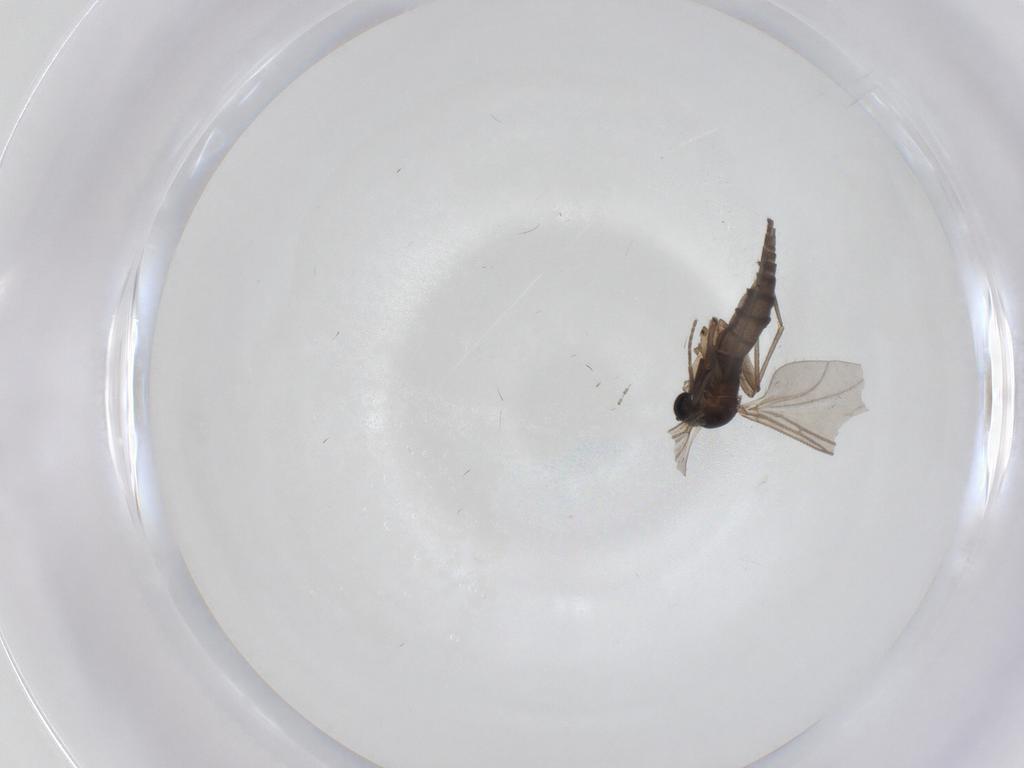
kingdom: Animalia
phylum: Arthropoda
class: Insecta
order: Diptera
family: Sciaridae
